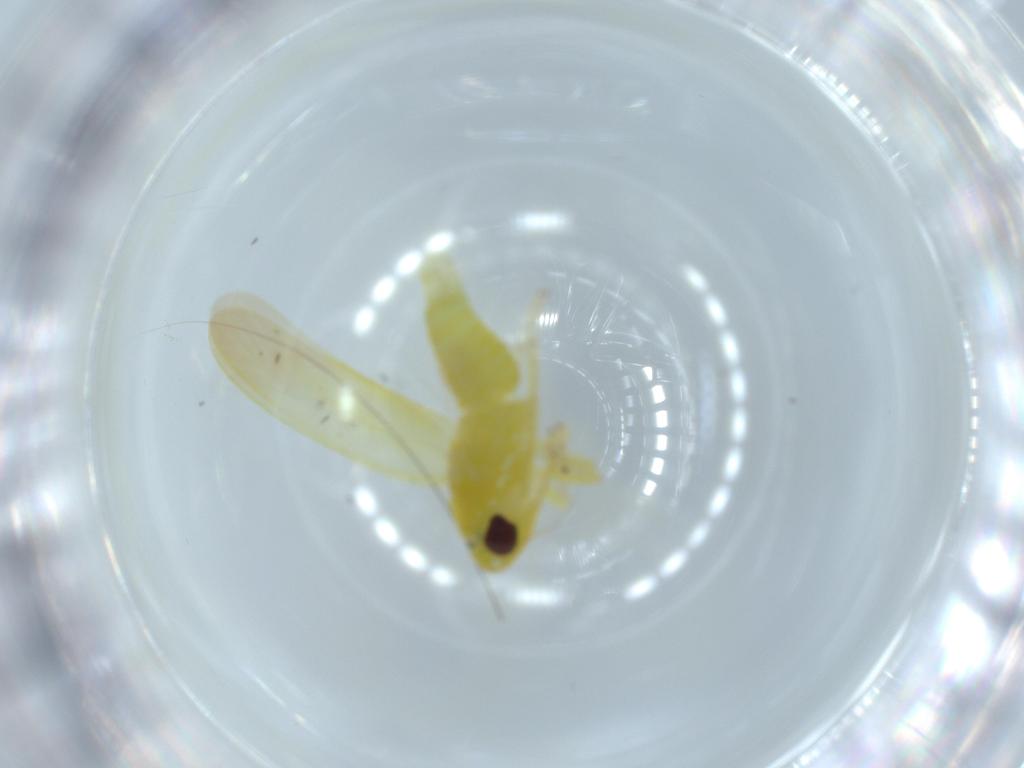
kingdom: Animalia
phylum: Arthropoda
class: Insecta
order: Hemiptera
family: Cicadellidae
